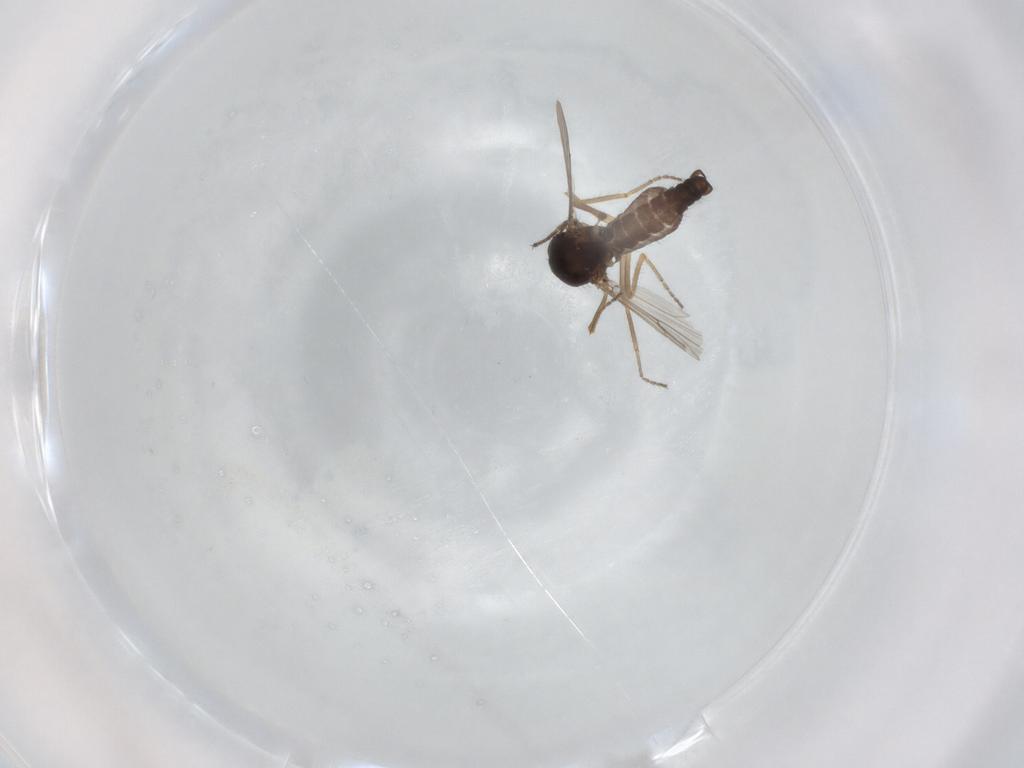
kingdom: Animalia
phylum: Arthropoda
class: Insecta
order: Diptera
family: Ceratopogonidae
